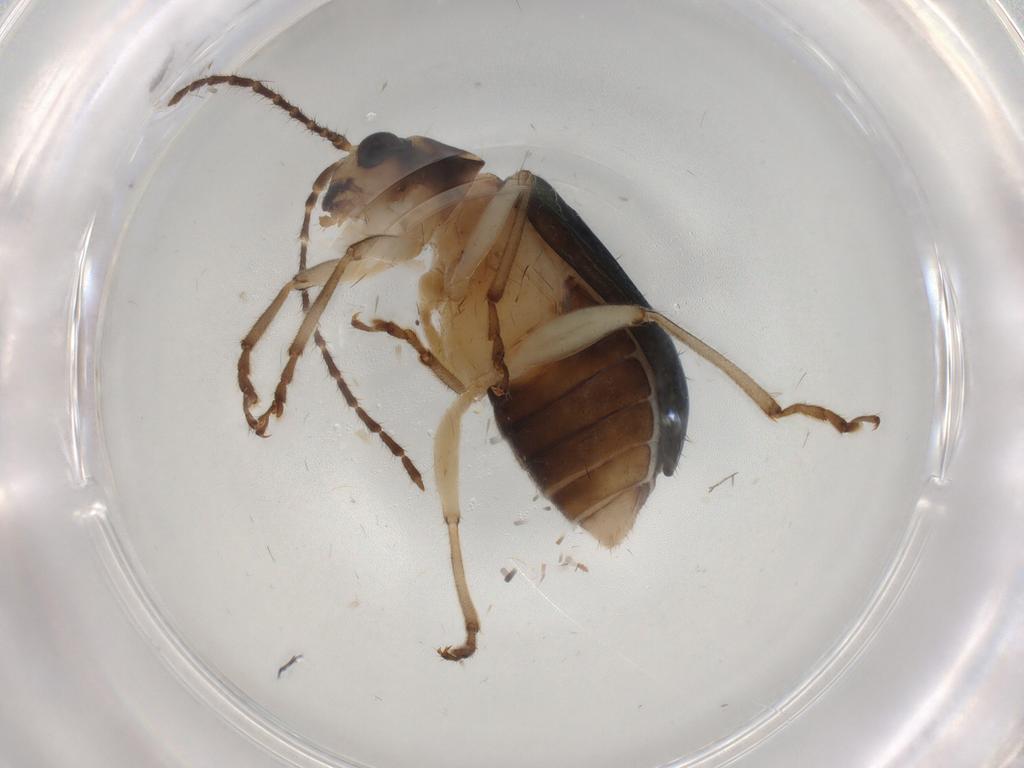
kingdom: Animalia
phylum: Arthropoda
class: Insecta
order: Coleoptera
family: Chrysomelidae
